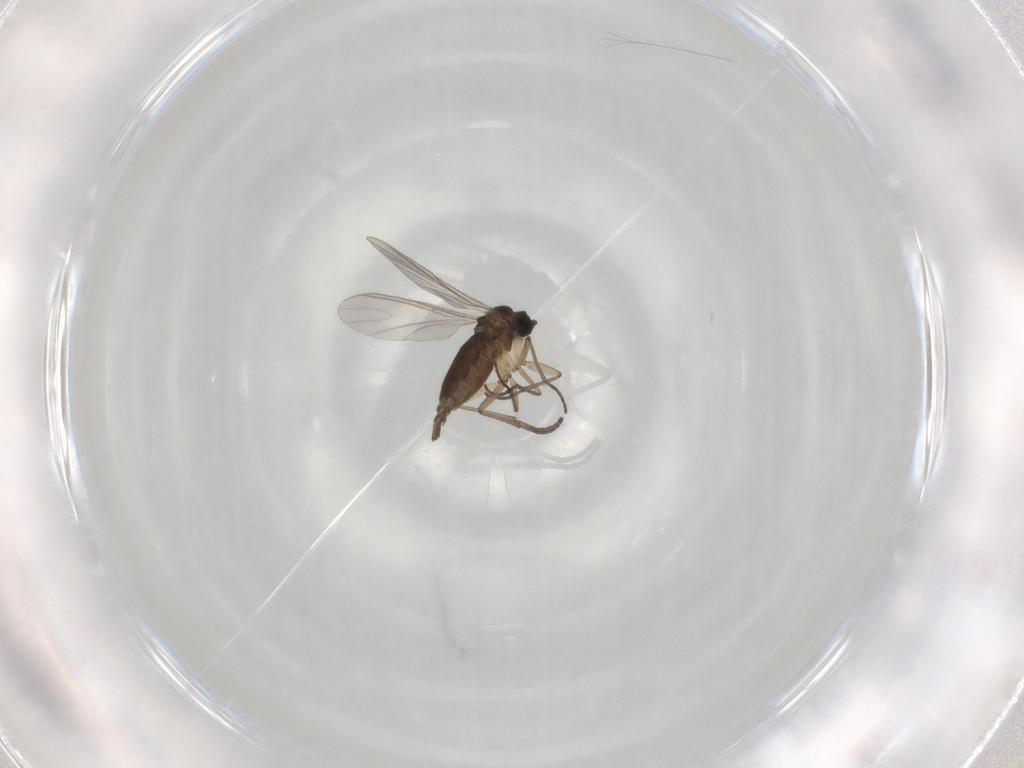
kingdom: Animalia
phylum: Arthropoda
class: Insecta
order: Diptera
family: Sciaridae
